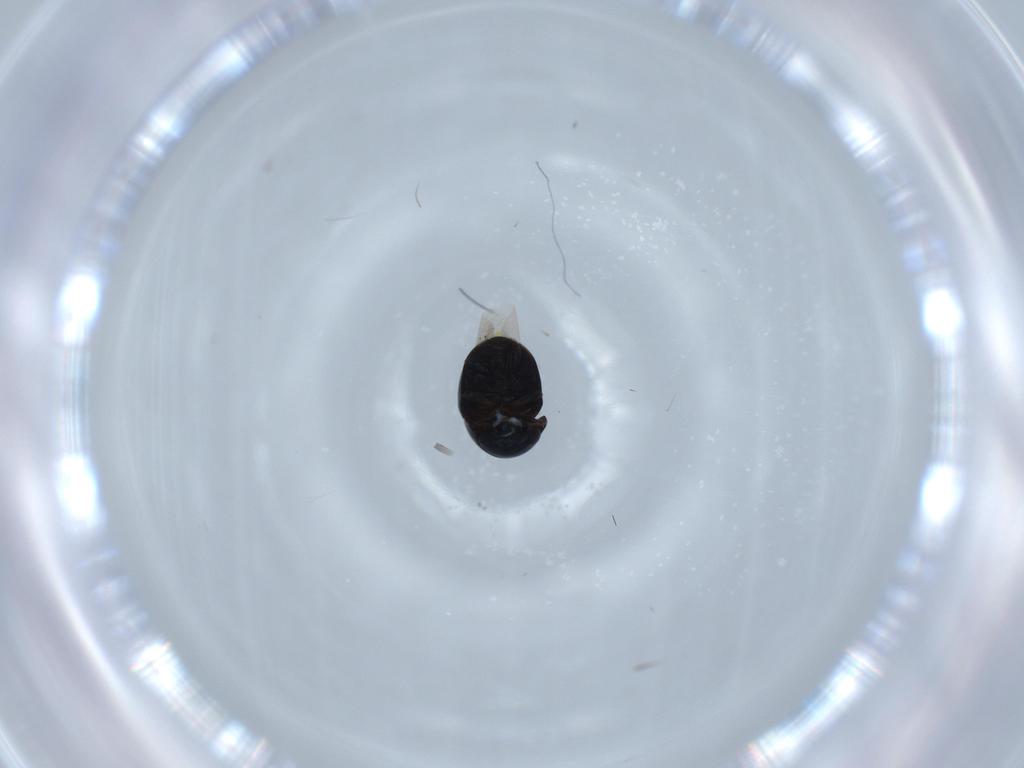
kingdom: Animalia
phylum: Arthropoda
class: Insecta
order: Coleoptera
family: Cybocephalidae
